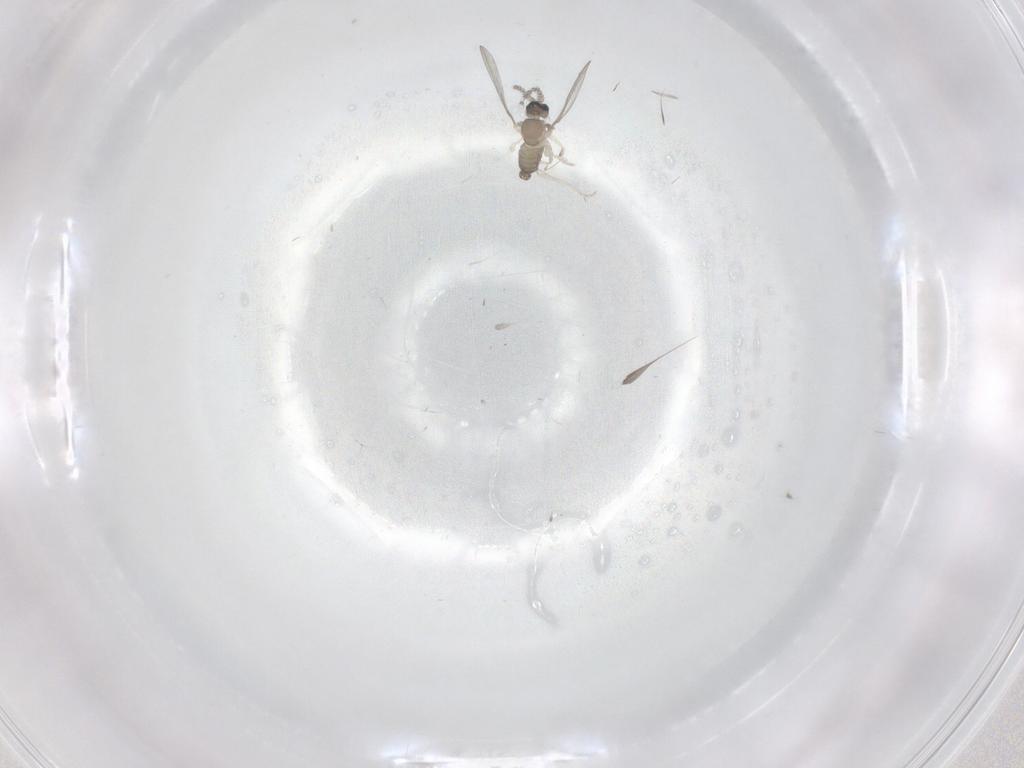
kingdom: Animalia
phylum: Arthropoda
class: Insecta
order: Diptera
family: Cecidomyiidae
